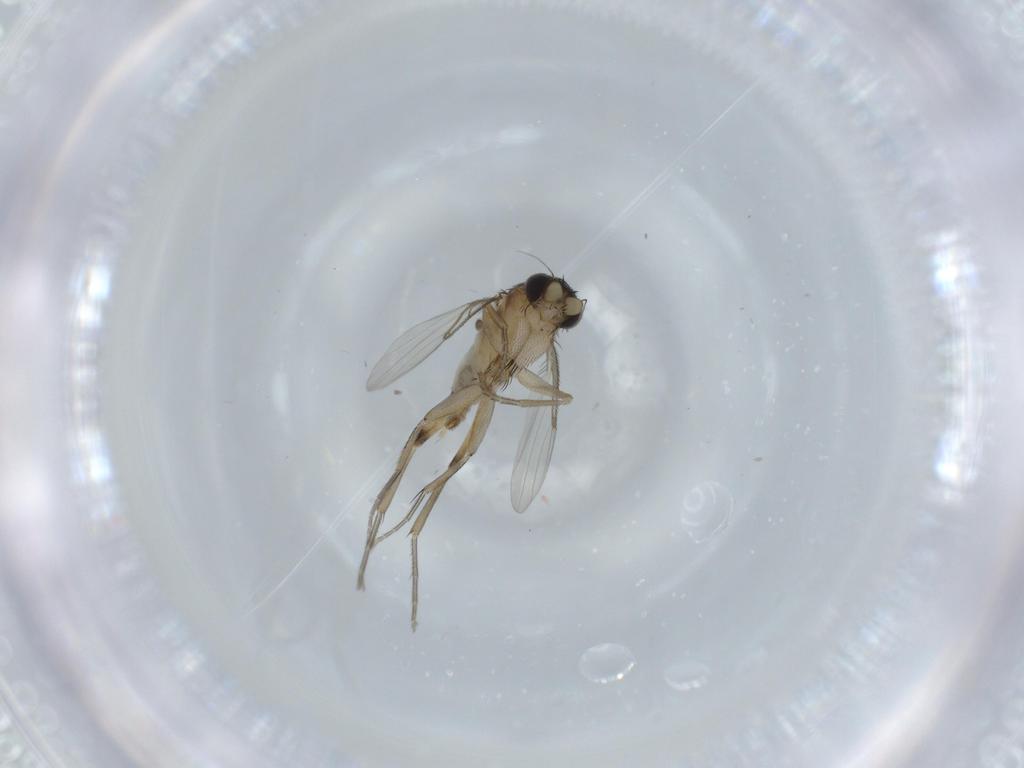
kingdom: Animalia
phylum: Arthropoda
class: Insecta
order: Diptera
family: Phoridae
